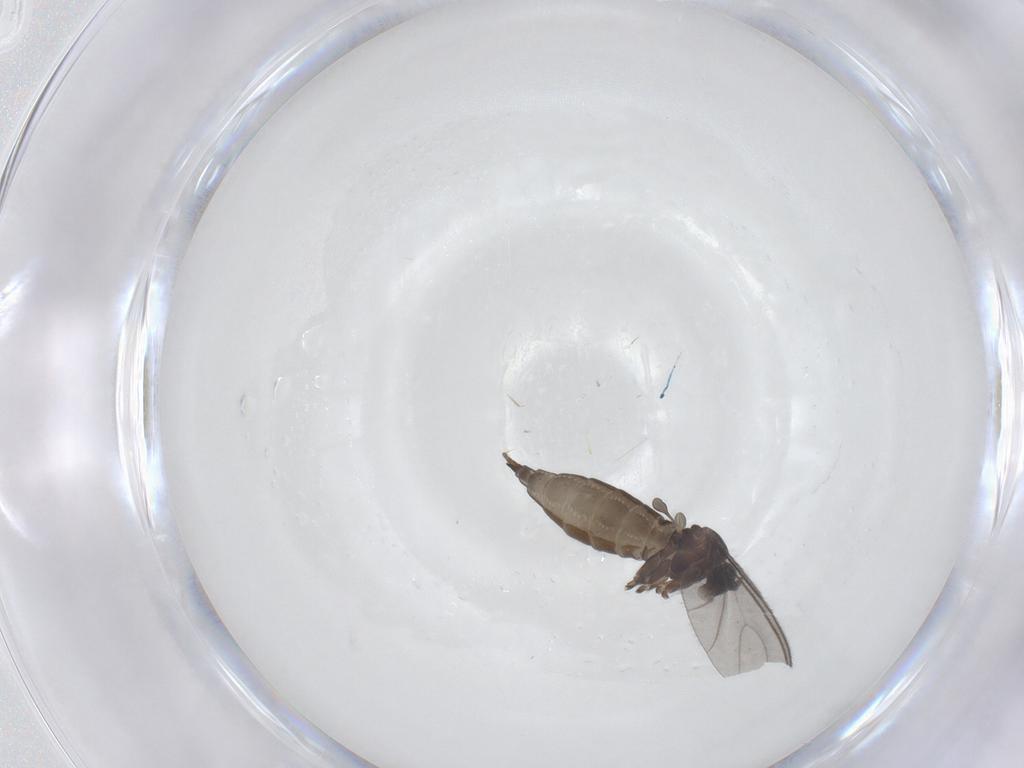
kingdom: Animalia
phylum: Arthropoda
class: Insecta
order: Diptera
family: Sciaridae
